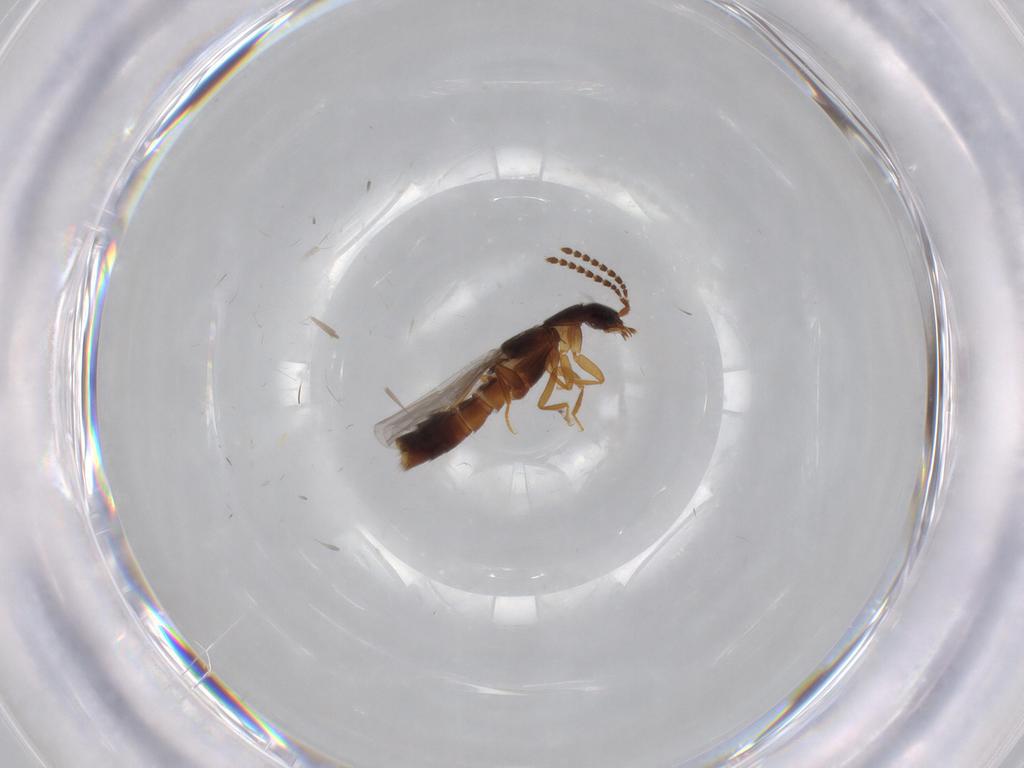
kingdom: Animalia
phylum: Arthropoda
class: Insecta
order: Coleoptera
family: Staphylinidae
